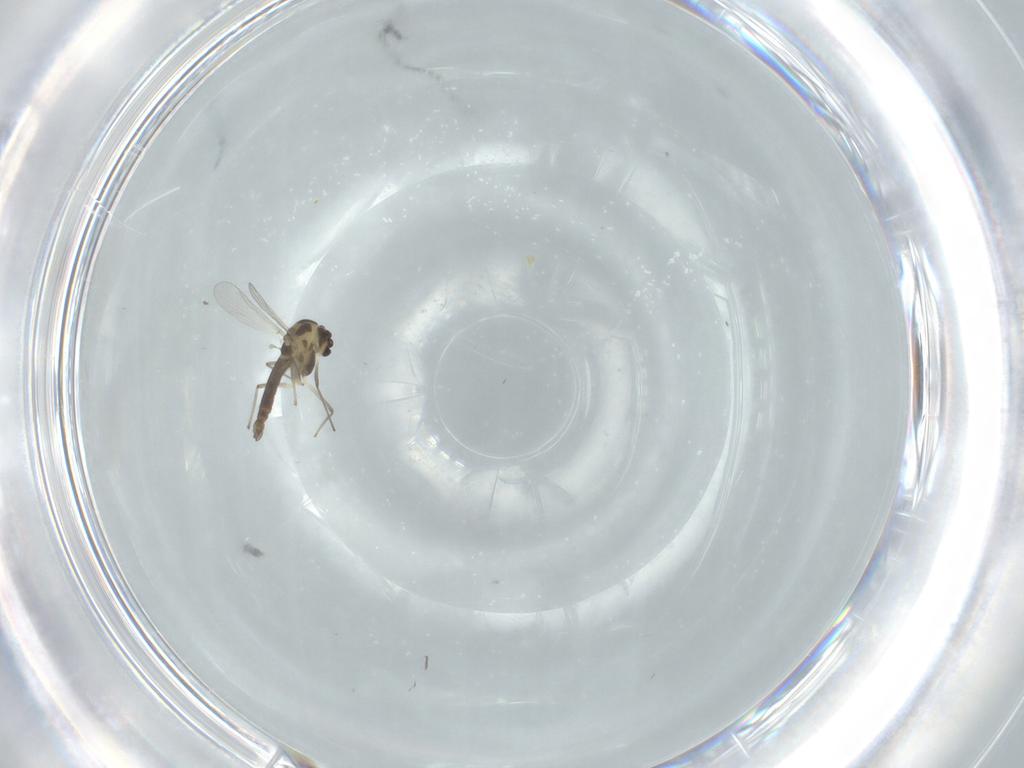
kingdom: Animalia
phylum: Arthropoda
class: Insecta
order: Diptera
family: Chironomidae
